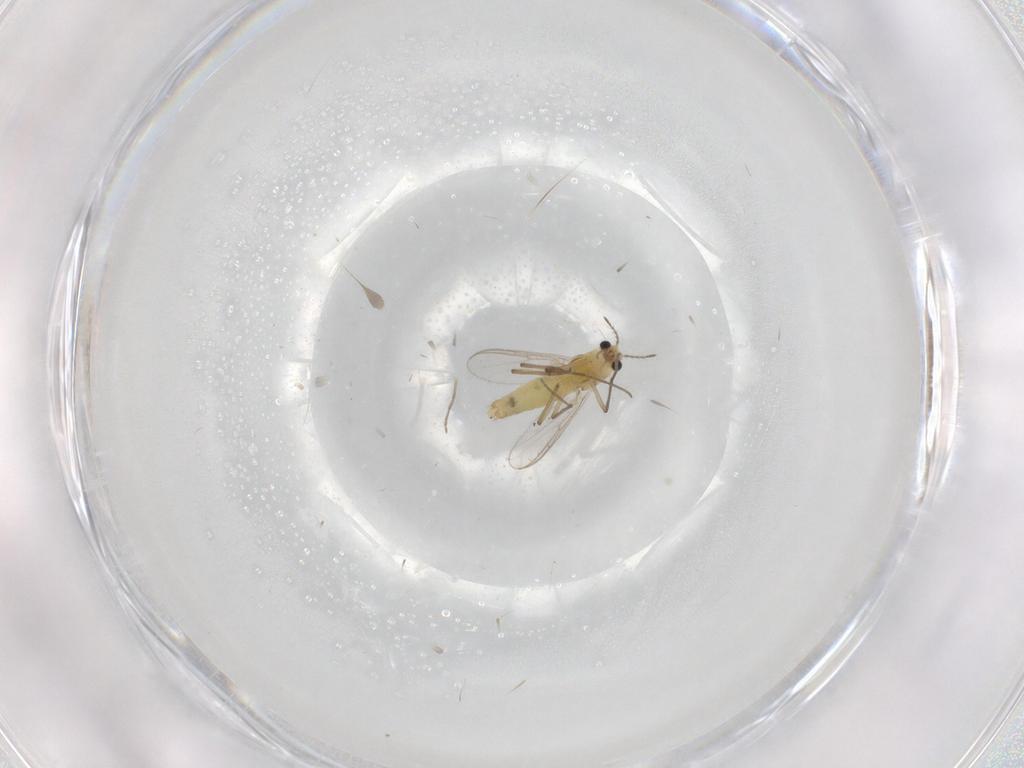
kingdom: Animalia
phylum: Arthropoda
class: Insecta
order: Diptera
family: Chironomidae
